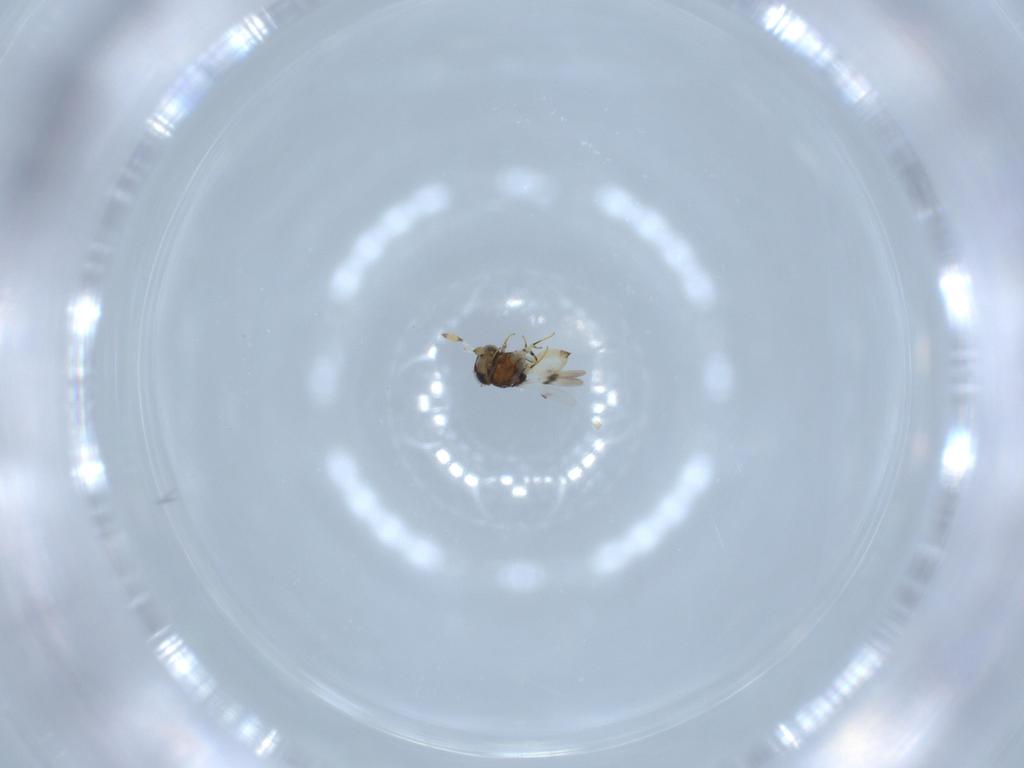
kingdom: Animalia
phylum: Arthropoda
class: Insecta
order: Hymenoptera
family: Scelionidae
